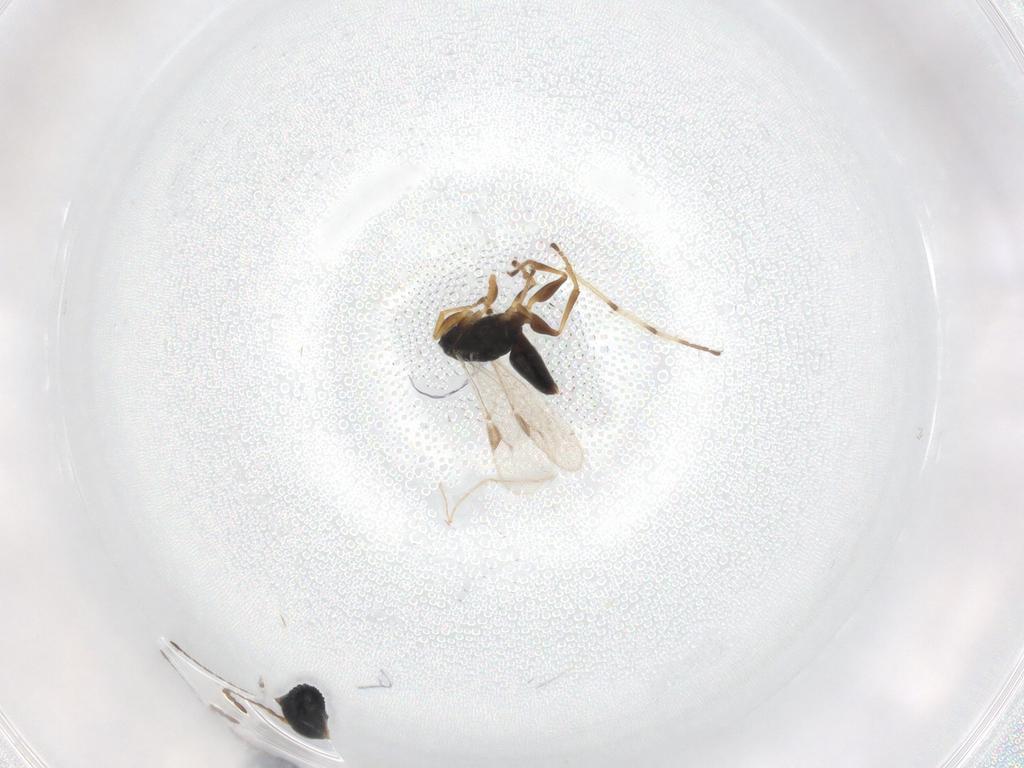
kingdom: Animalia
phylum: Arthropoda
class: Insecta
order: Hymenoptera
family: Dryinidae
